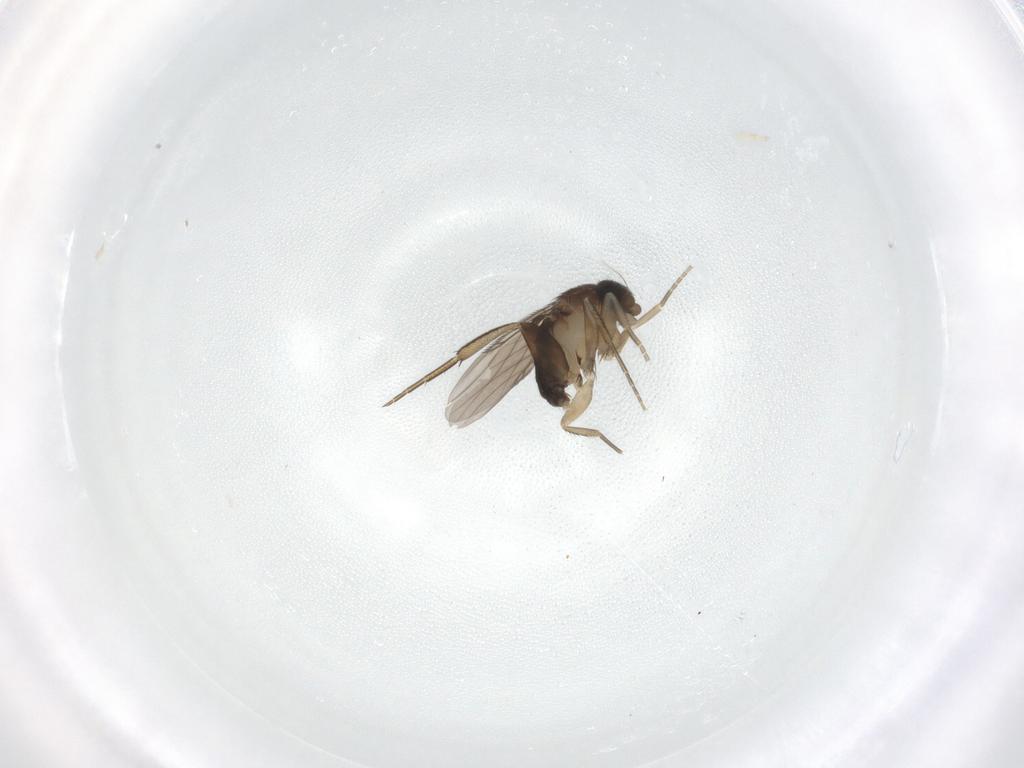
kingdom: Animalia
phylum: Arthropoda
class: Insecta
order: Diptera
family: Phoridae
